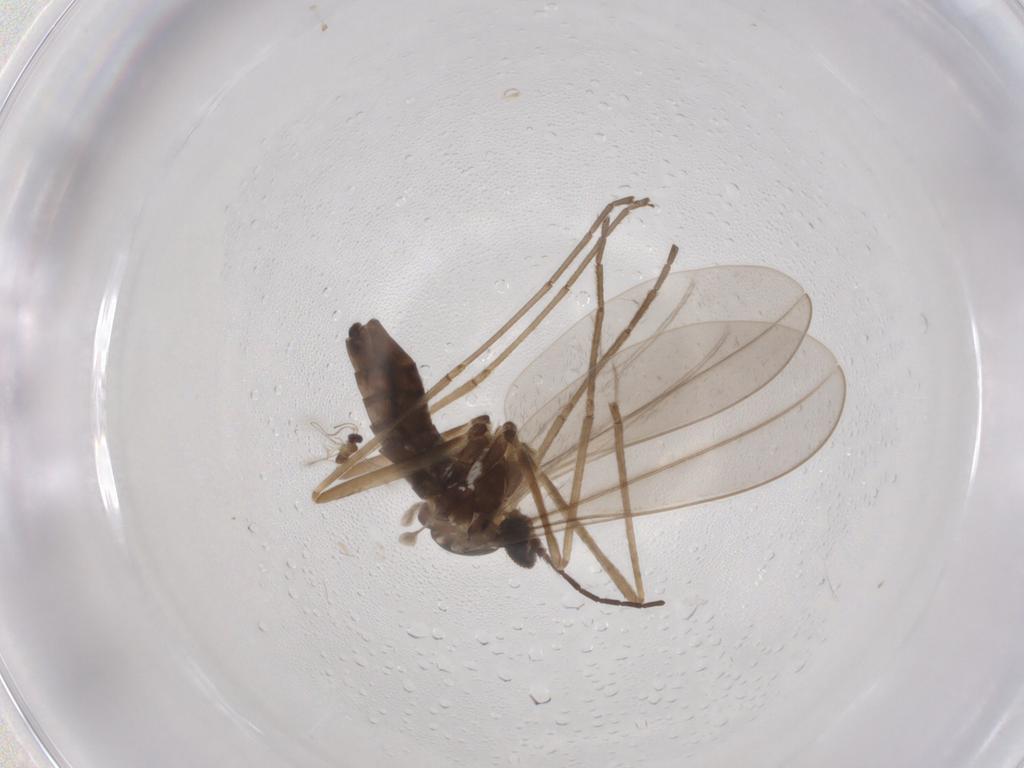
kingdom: Animalia
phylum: Arthropoda
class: Insecta
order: Diptera
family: Cecidomyiidae
